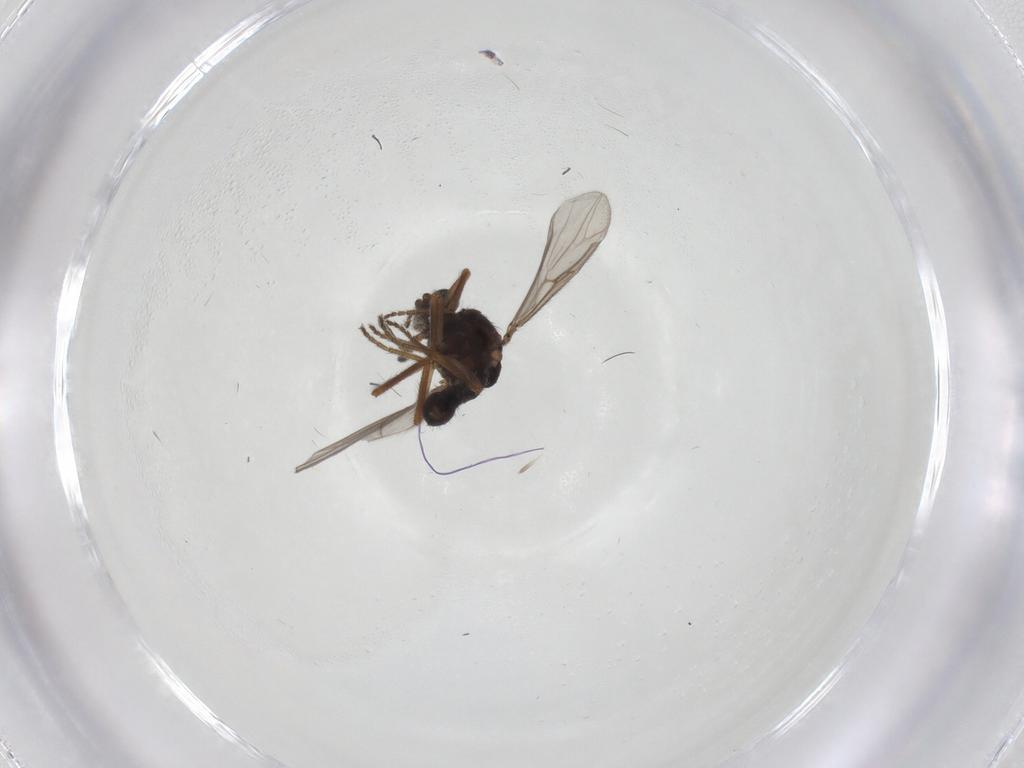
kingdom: Animalia
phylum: Arthropoda
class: Insecta
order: Diptera
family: Ceratopogonidae
